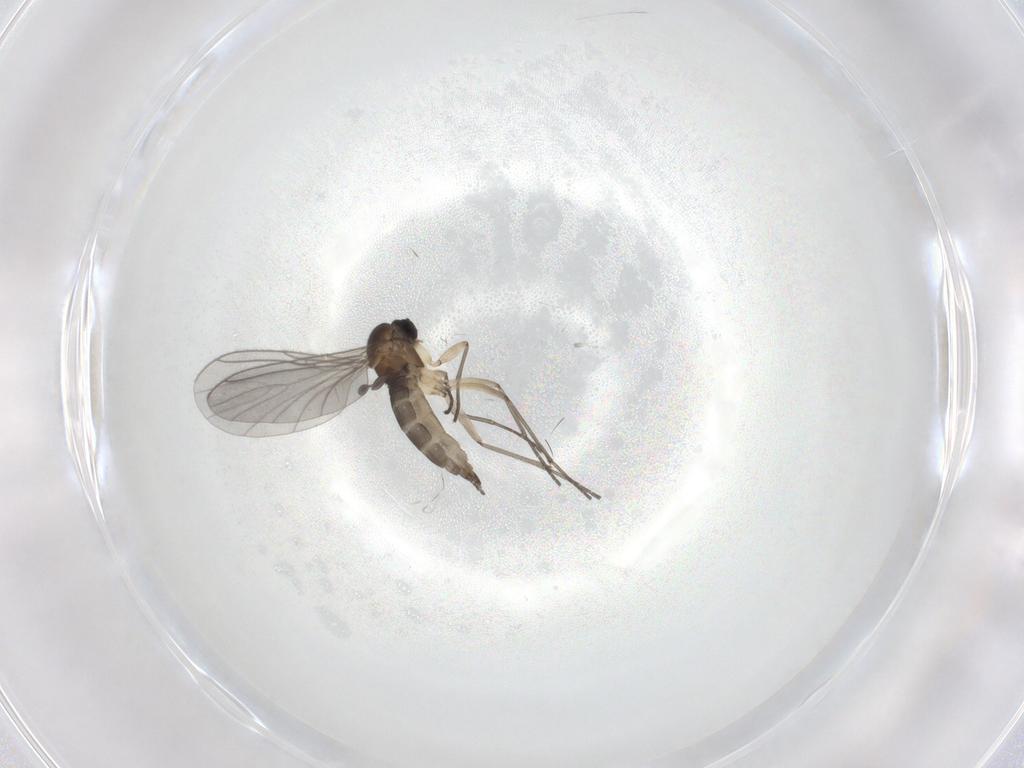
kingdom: Animalia
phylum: Arthropoda
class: Insecta
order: Diptera
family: Sciaridae
